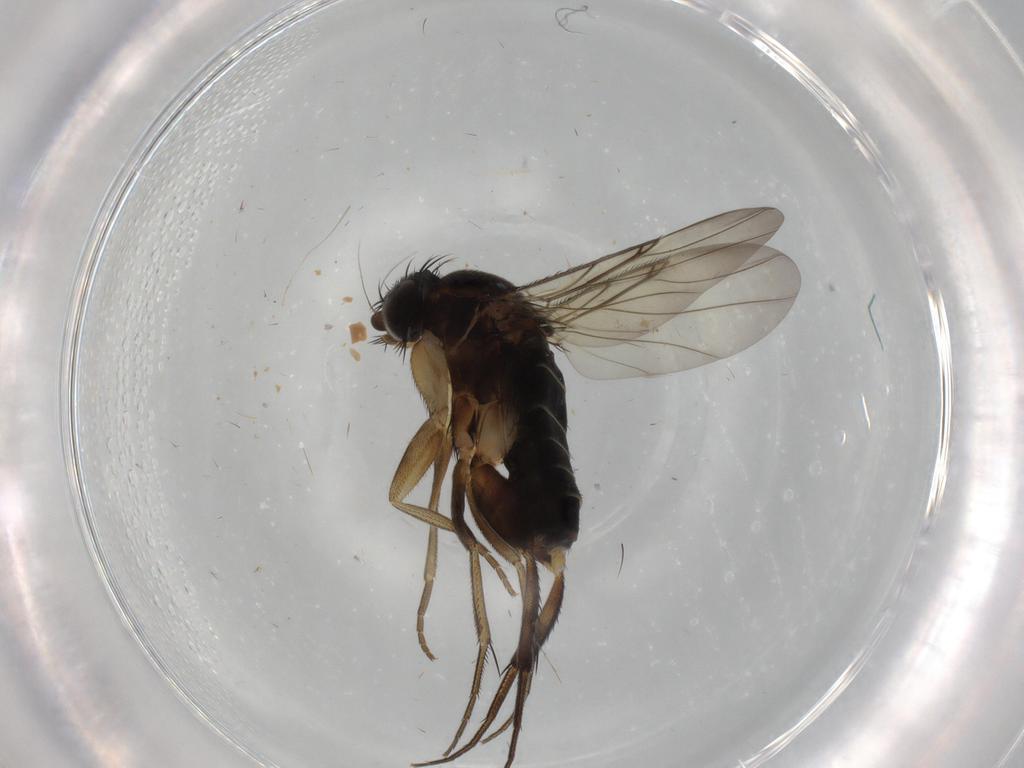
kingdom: Animalia
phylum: Arthropoda
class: Insecta
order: Diptera
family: Phoridae
